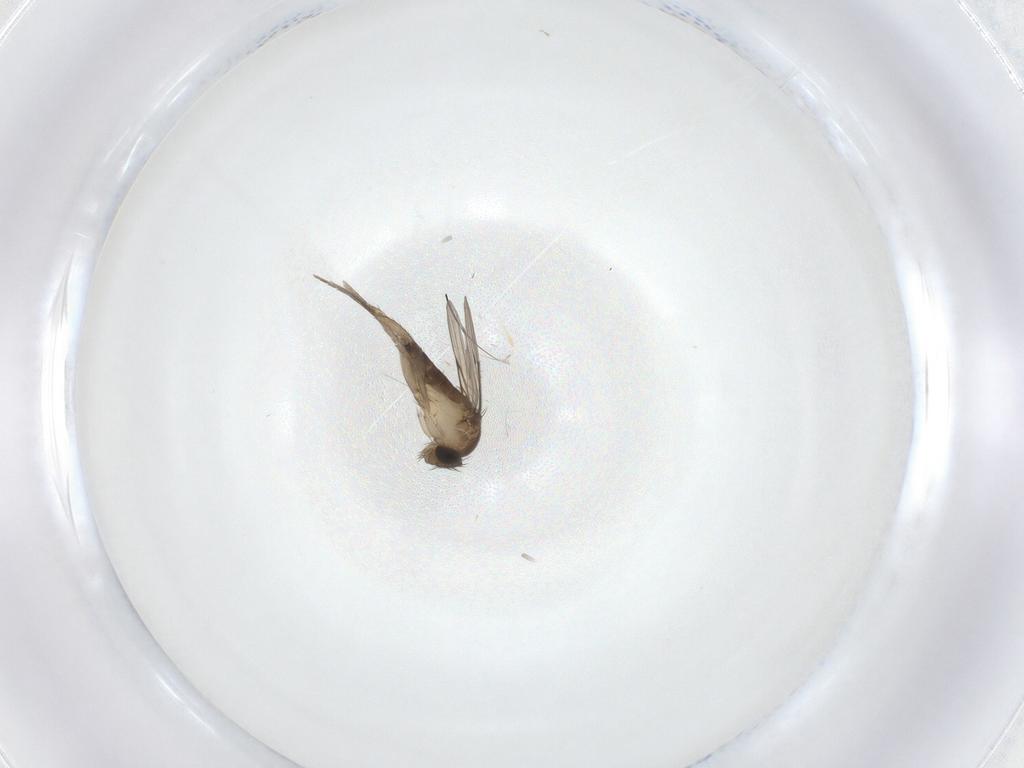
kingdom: Animalia
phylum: Arthropoda
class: Insecta
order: Diptera
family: Phoridae
